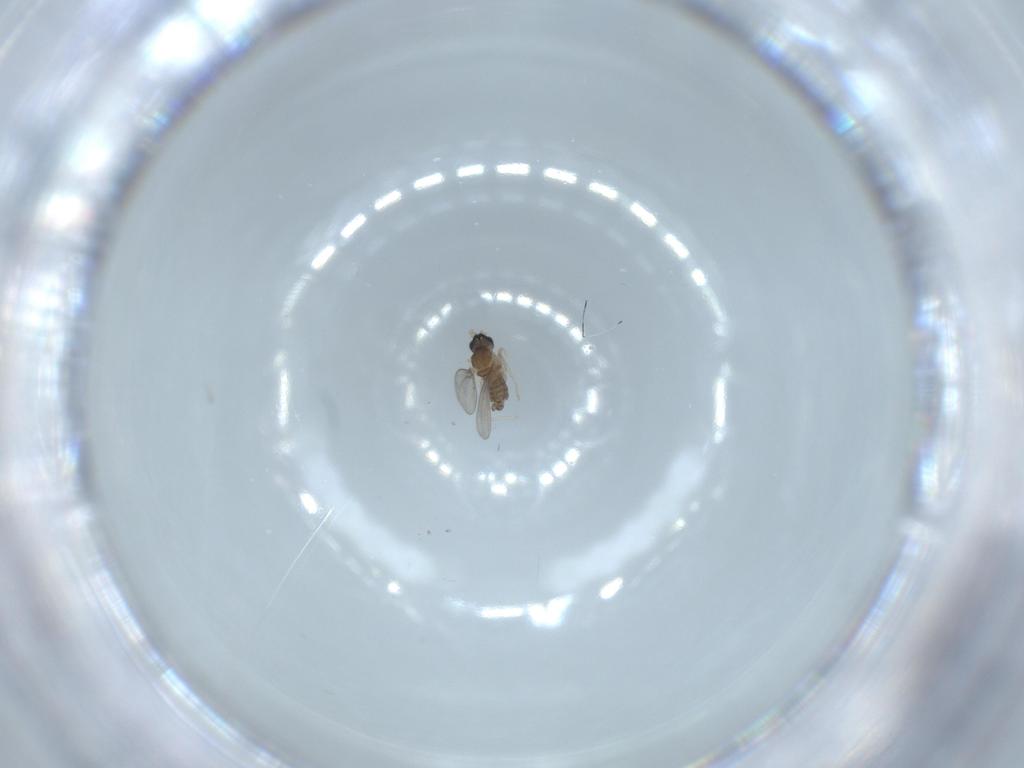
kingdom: Animalia
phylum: Arthropoda
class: Insecta
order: Diptera
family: Cecidomyiidae
